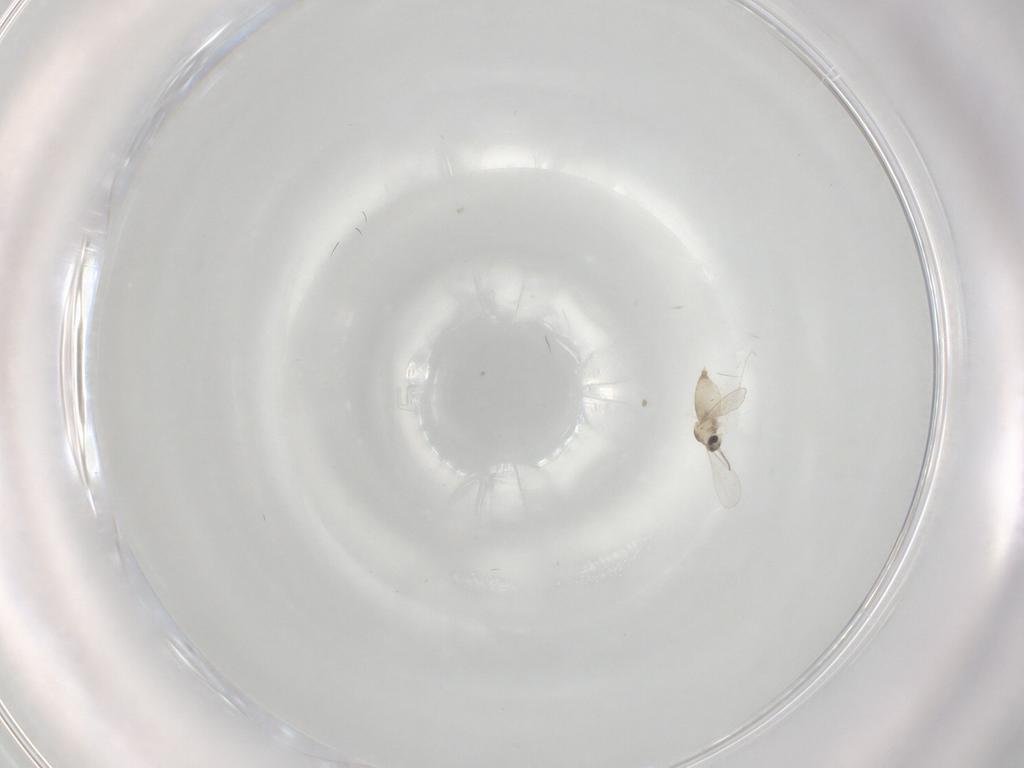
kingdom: Animalia
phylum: Arthropoda
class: Insecta
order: Diptera
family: Dolichopodidae
